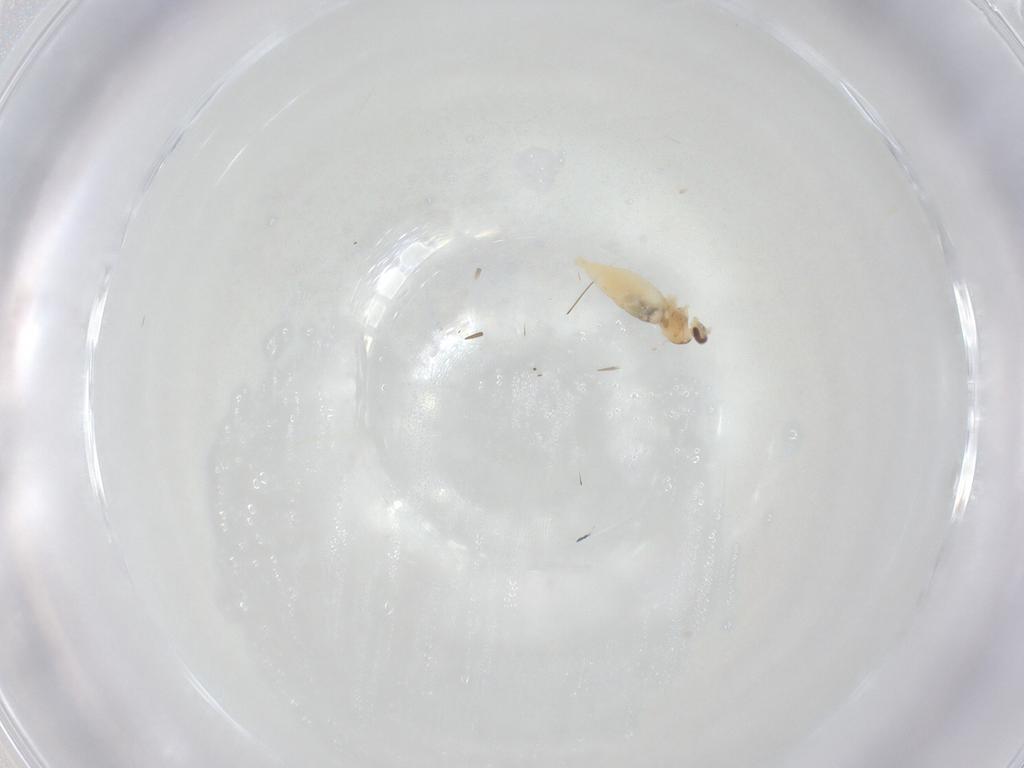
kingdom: Animalia
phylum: Arthropoda
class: Insecta
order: Diptera
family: Cecidomyiidae
